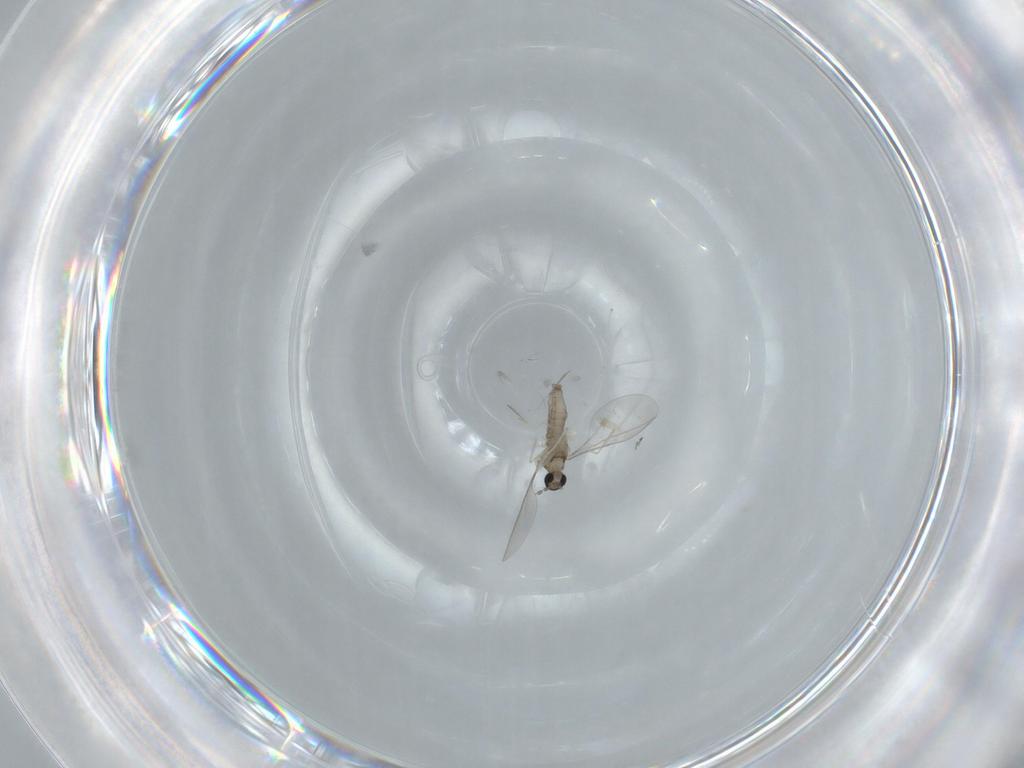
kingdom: Animalia
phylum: Arthropoda
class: Insecta
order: Diptera
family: Cecidomyiidae
